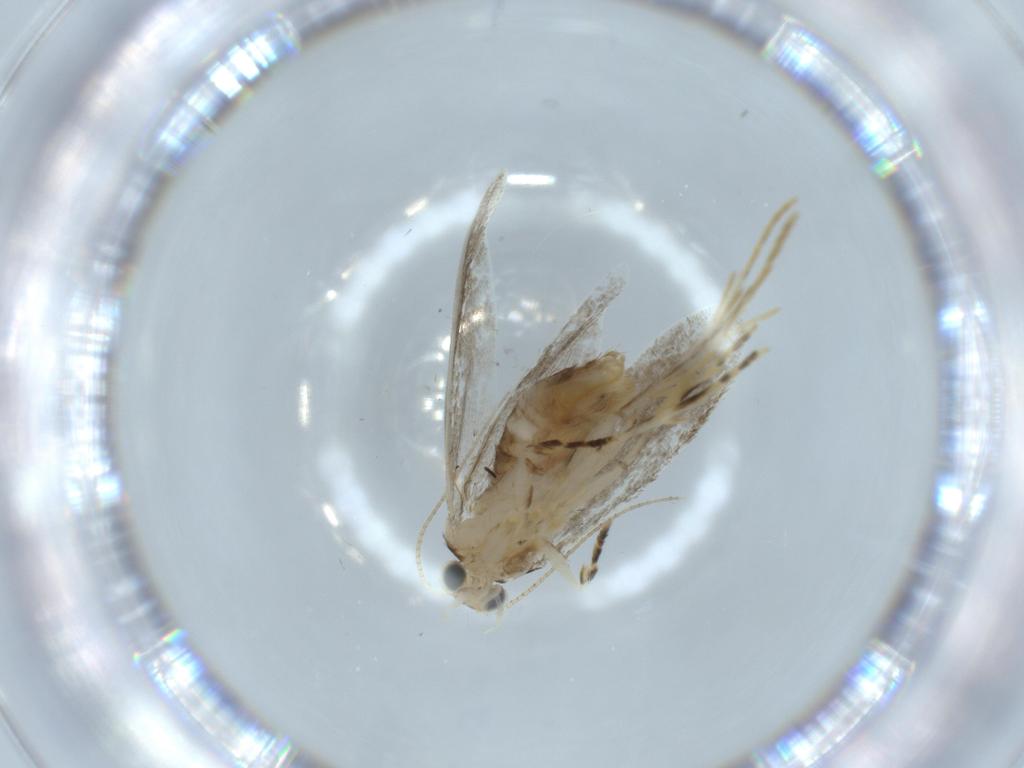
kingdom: Animalia
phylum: Arthropoda
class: Insecta
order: Lepidoptera
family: Tineidae
